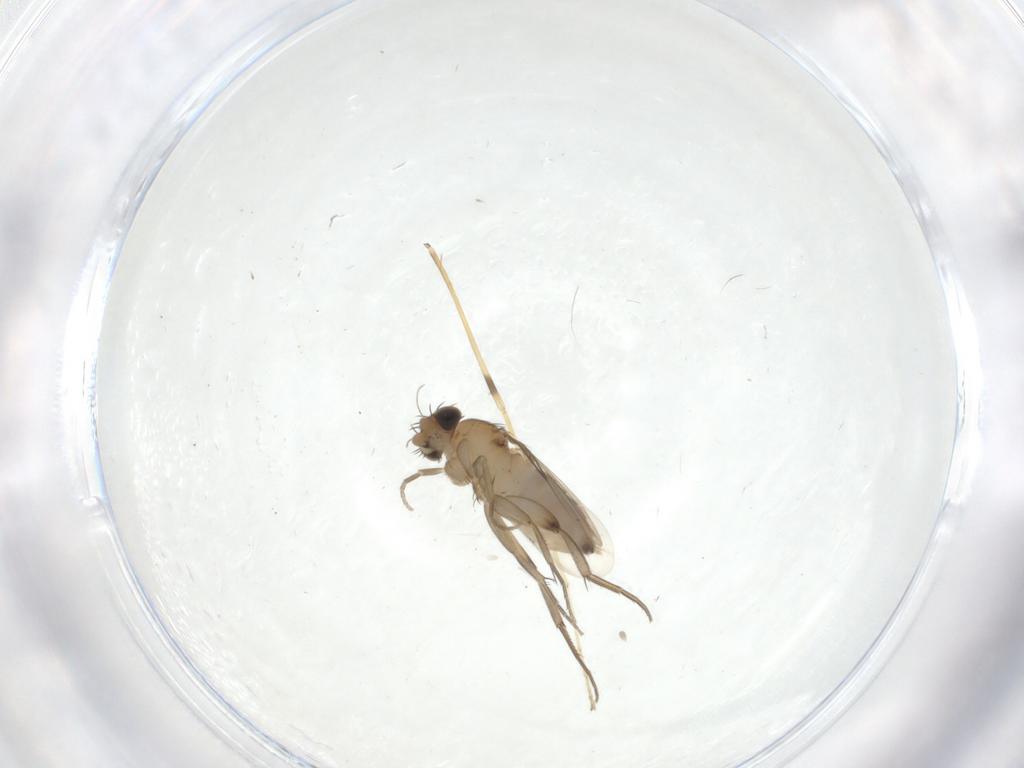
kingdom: Animalia
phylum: Arthropoda
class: Insecta
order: Diptera
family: Phoridae
